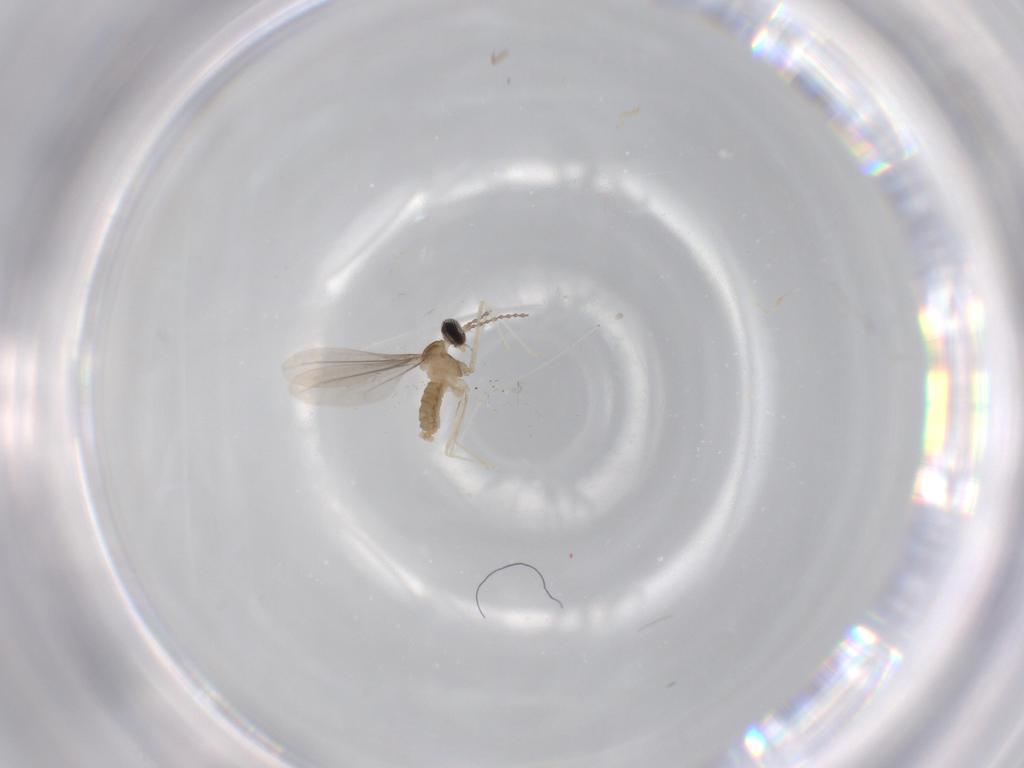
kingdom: Animalia
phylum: Arthropoda
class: Insecta
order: Diptera
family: Cecidomyiidae
